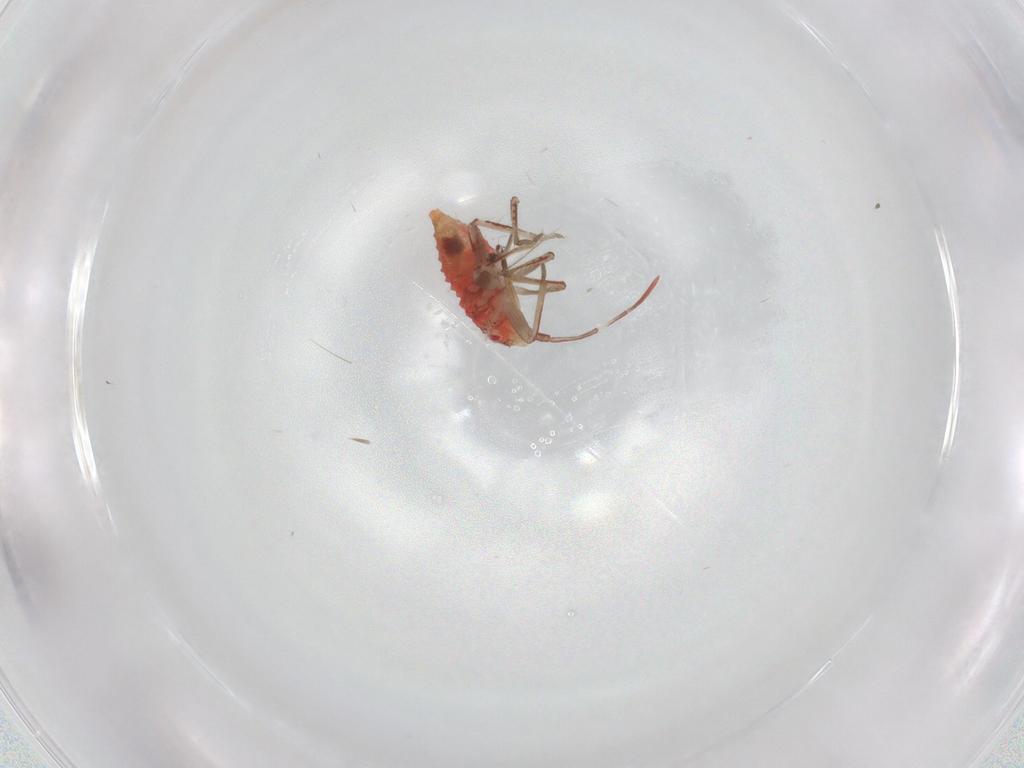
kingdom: Animalia
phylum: Arthropoda
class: Insecta
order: Hemiptera
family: Miridae
